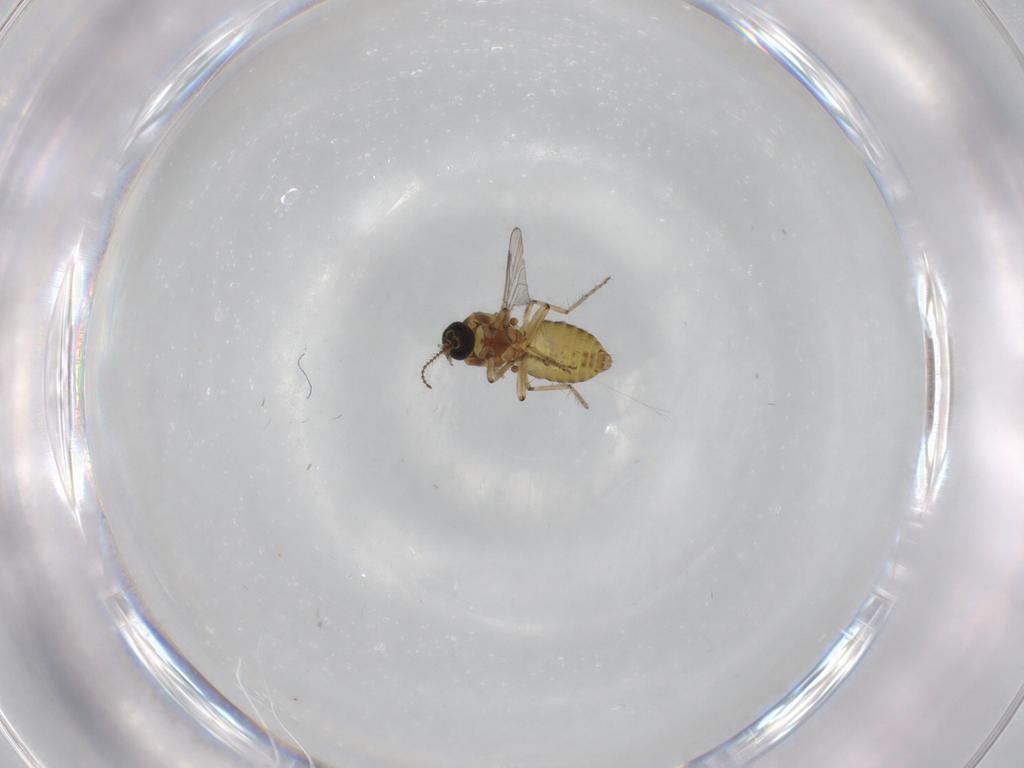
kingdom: Animalia
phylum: Arthropoda
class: Insecta
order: Diptera
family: Ceratopogonidae
